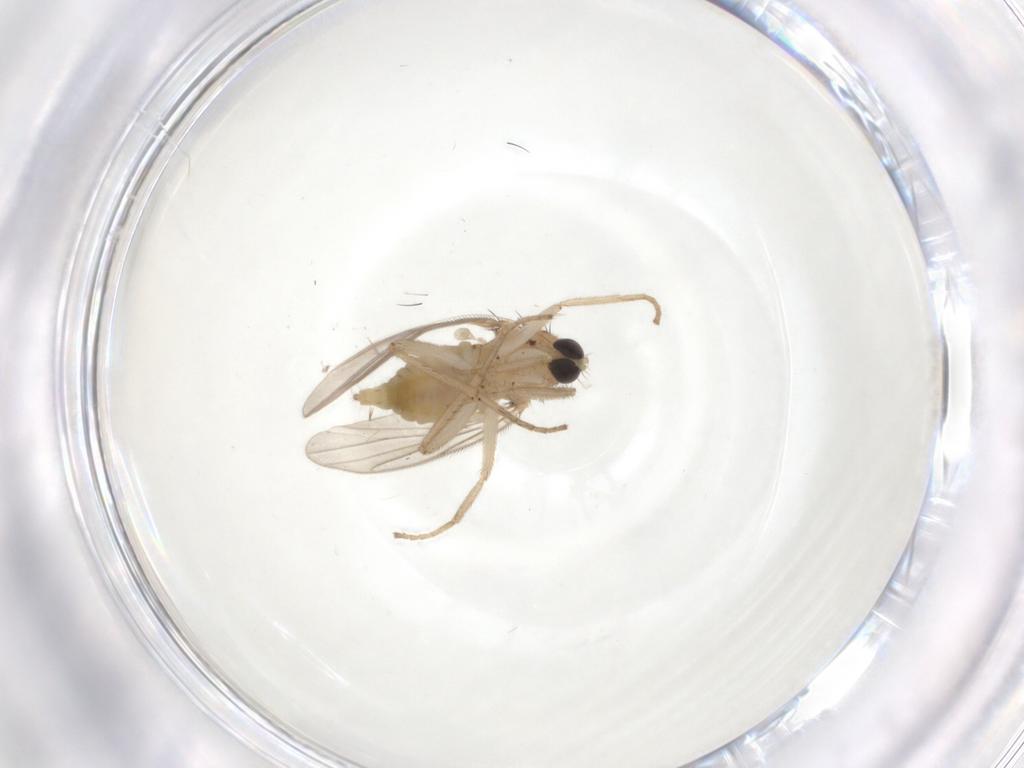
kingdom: Animalia
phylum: Arthropoda
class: Insecta
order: Diptera
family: Hybotidae
